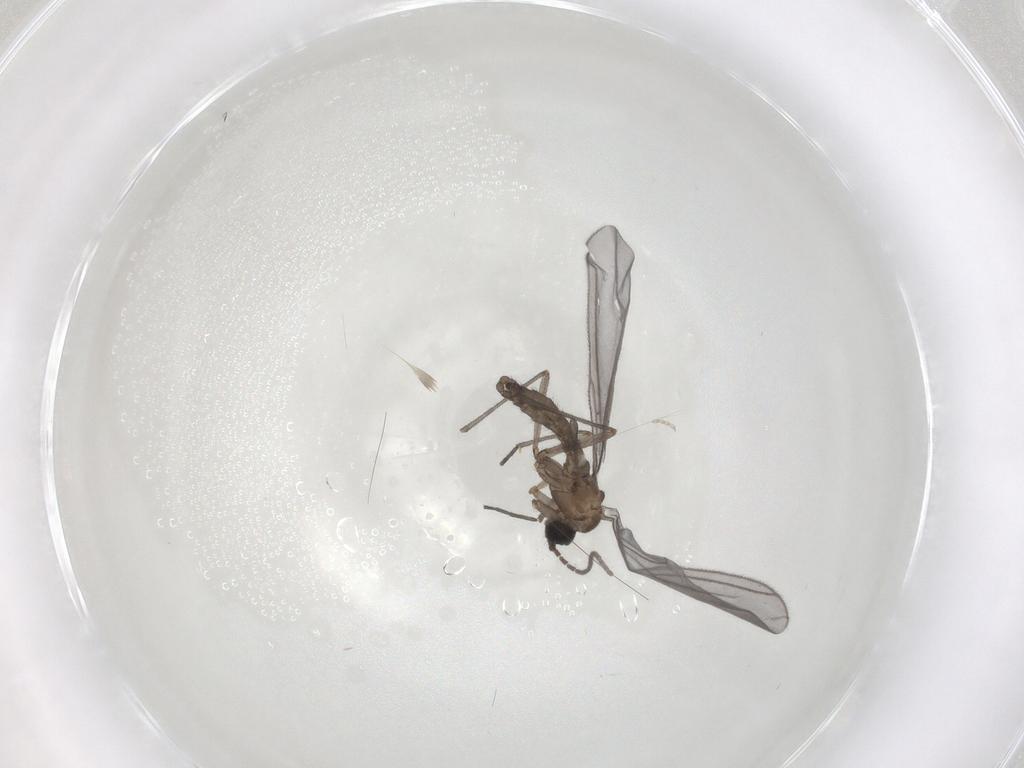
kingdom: Animalia
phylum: Arthropoda
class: Insecta
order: Diptera
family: Sciaridae
